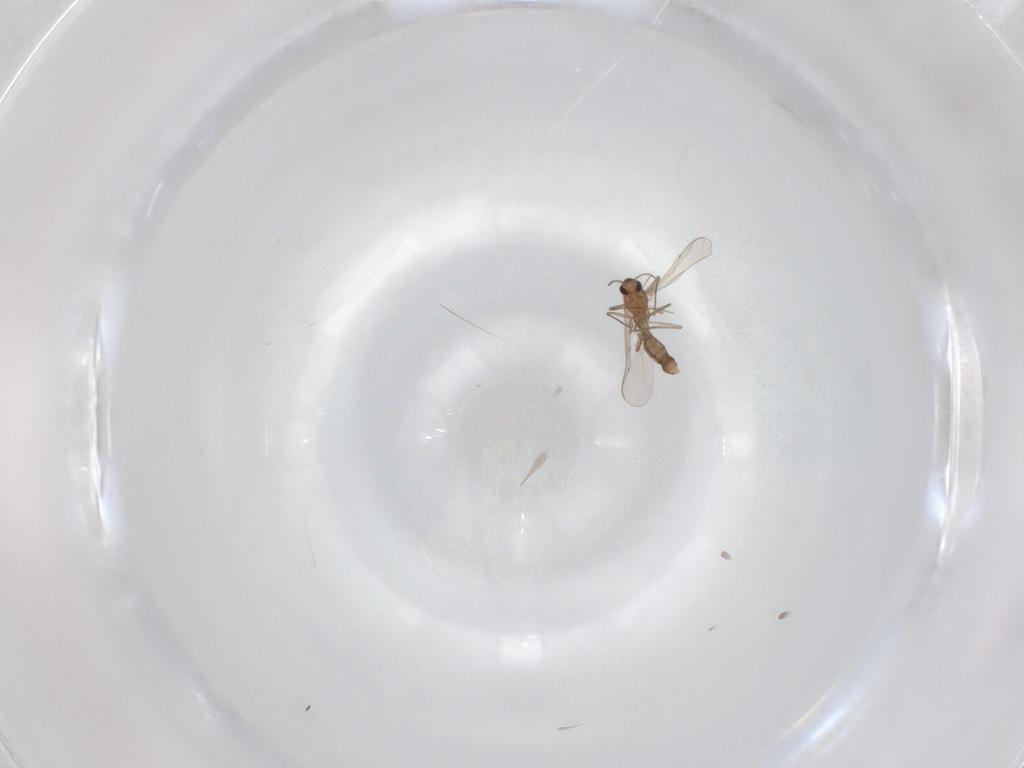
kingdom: Animalia
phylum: Arthropoda
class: Insecta
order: Diptera
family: Chironomidae
